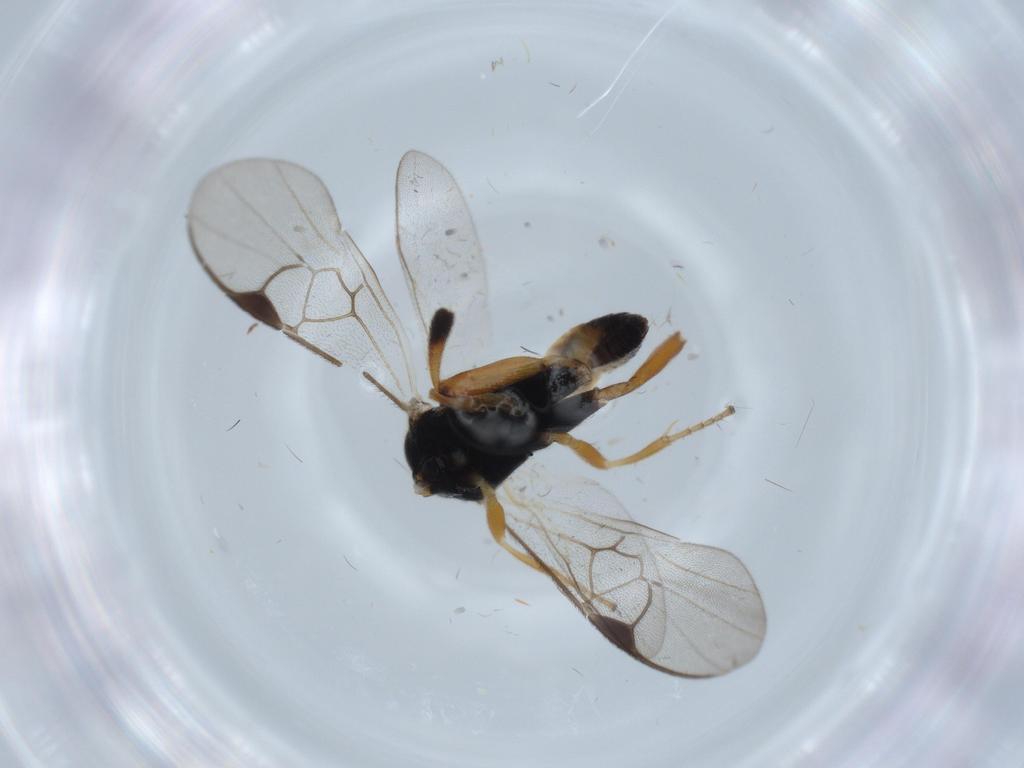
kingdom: Animalia
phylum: Arthropoda
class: Insecta
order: Hymenoptera
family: Braconidae
